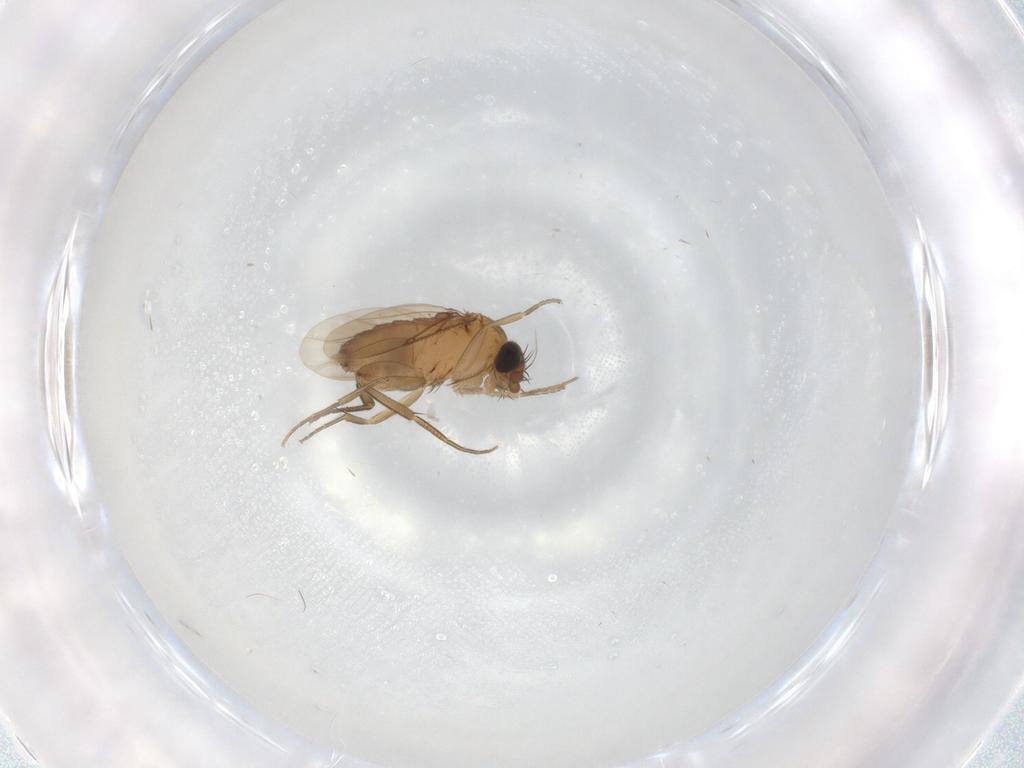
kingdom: Animalia
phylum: Arthropoda
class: Insecta
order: Diptera
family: Phoridae
